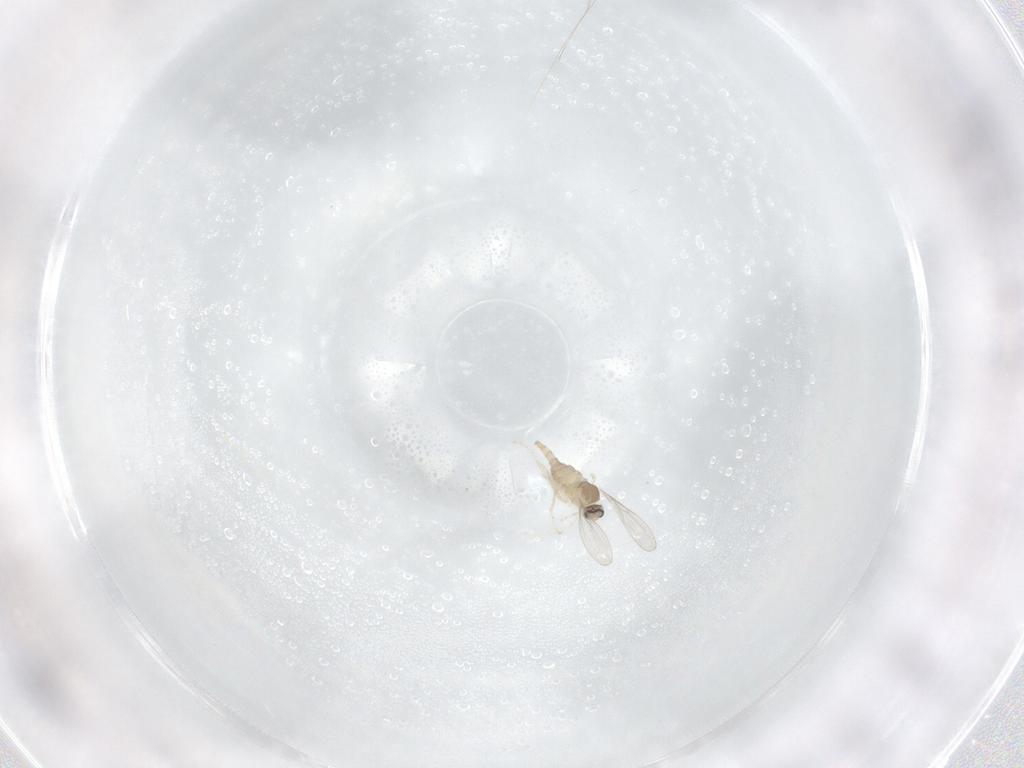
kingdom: Animalia
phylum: Arthropoda
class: Insecta
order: Diptera
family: Cecidomyiidae
